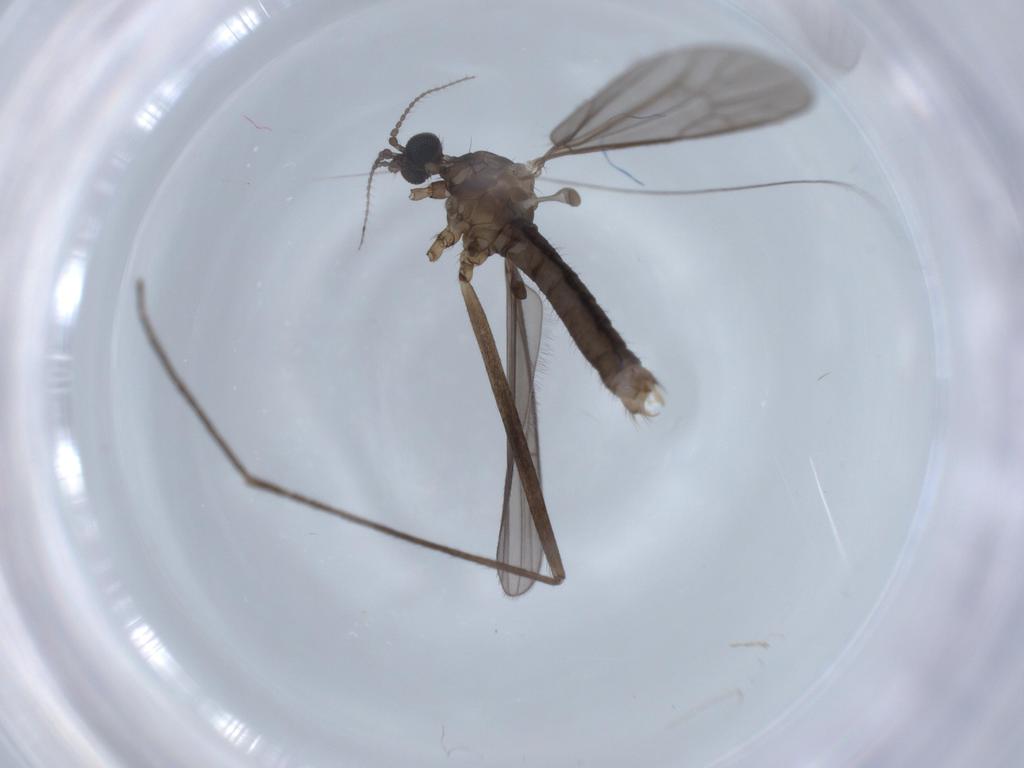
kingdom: Animalia
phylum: Arthropoda
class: Insecta
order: Diptera
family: Limoniidae
